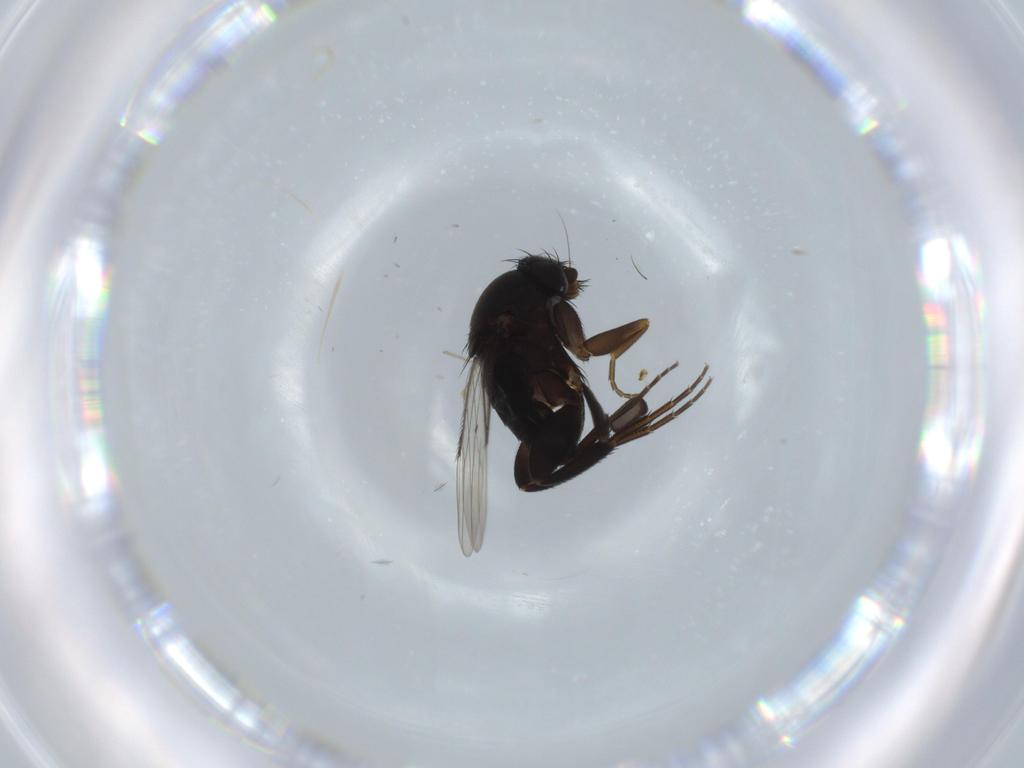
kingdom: Animalia
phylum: Arthropoda
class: Insecta
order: Diptera
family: Phoridae
